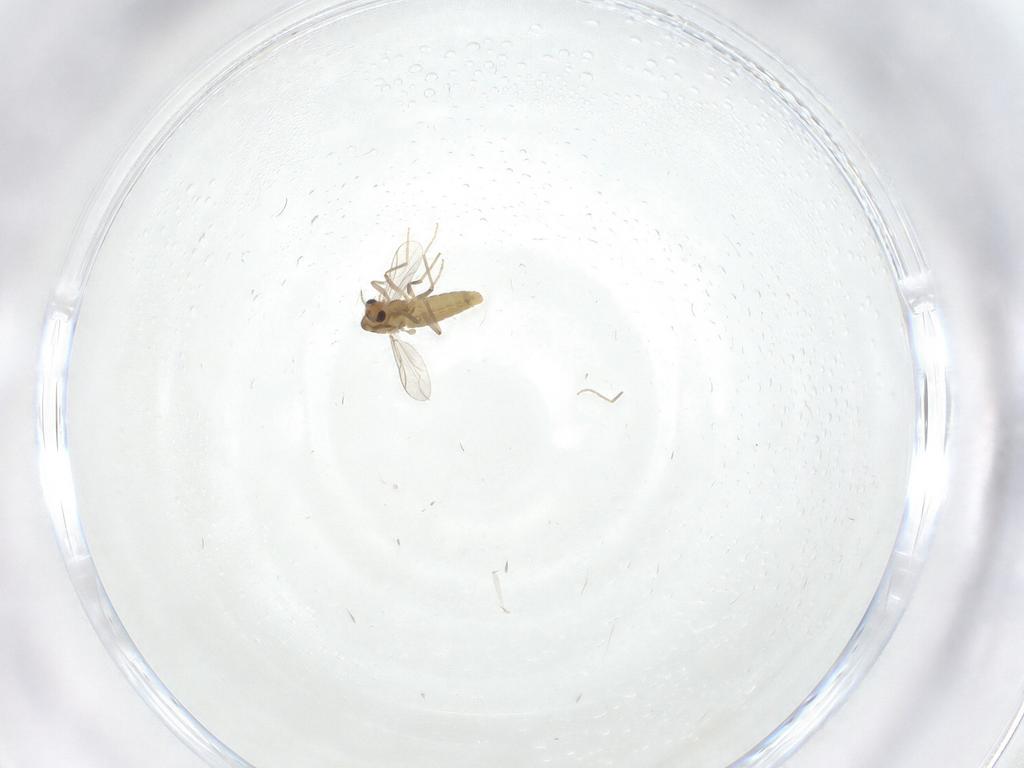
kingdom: Animalia
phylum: Arthropoda
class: Insecta
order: Diptera
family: Chironomidae
